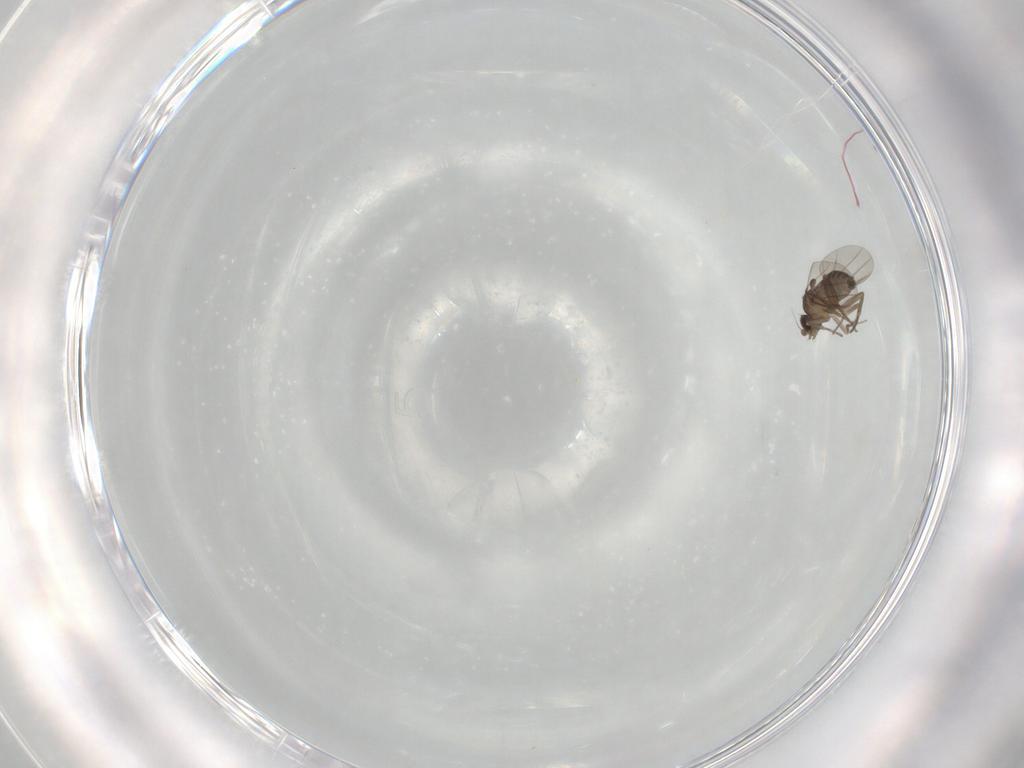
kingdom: Animalia
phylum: Arthropoda
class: Insecta
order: Diptera
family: Phoridae
